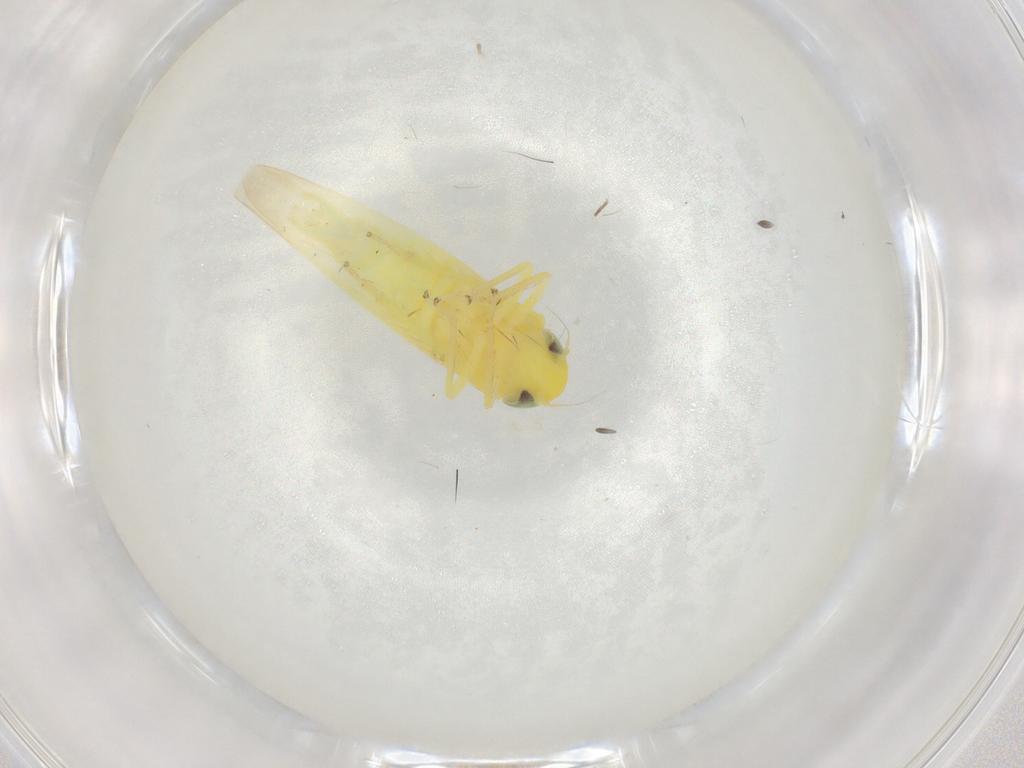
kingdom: Animalia
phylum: Arthropoda
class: Insecta
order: Hemiptera
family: Cicadellidae
